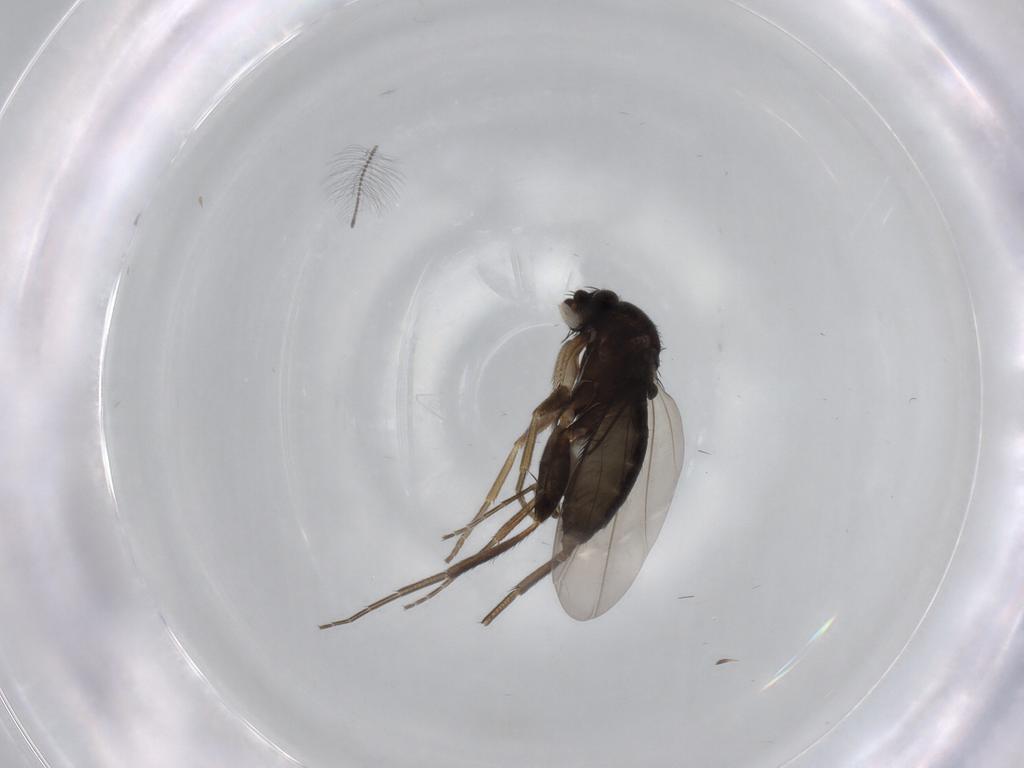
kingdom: Animalia
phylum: Arthropoda
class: Insecta
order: Diptera
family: Phoridae
